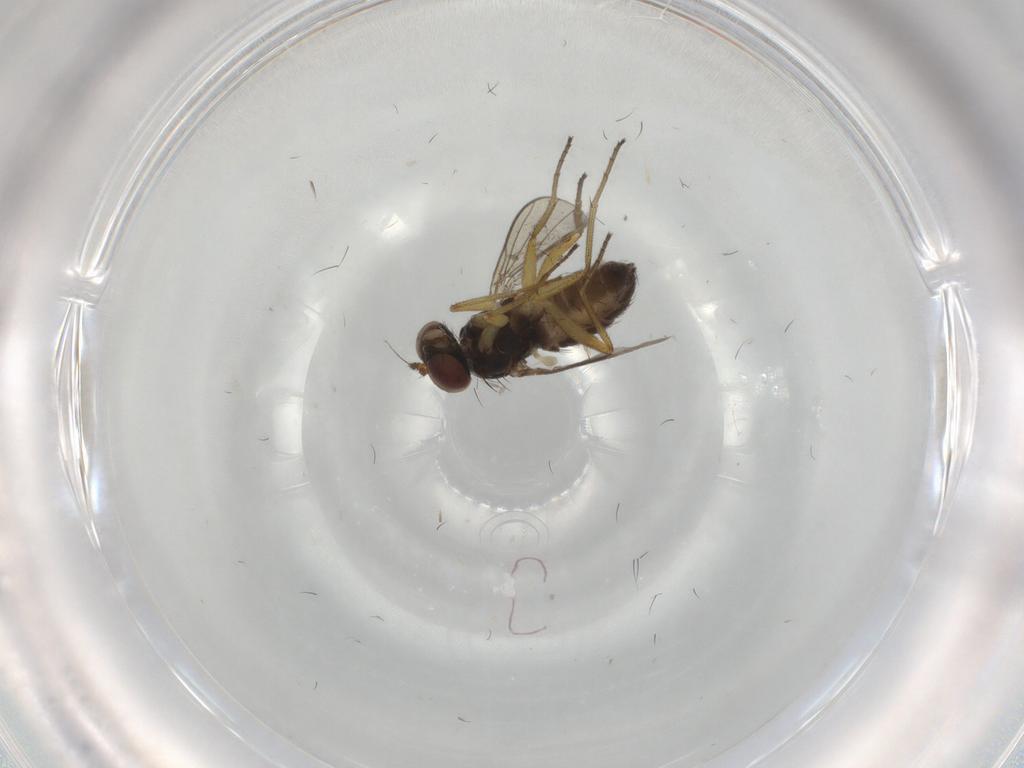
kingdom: Animalia
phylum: Arthropoda
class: Insecta
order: Diptera
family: Dolichopodidae
